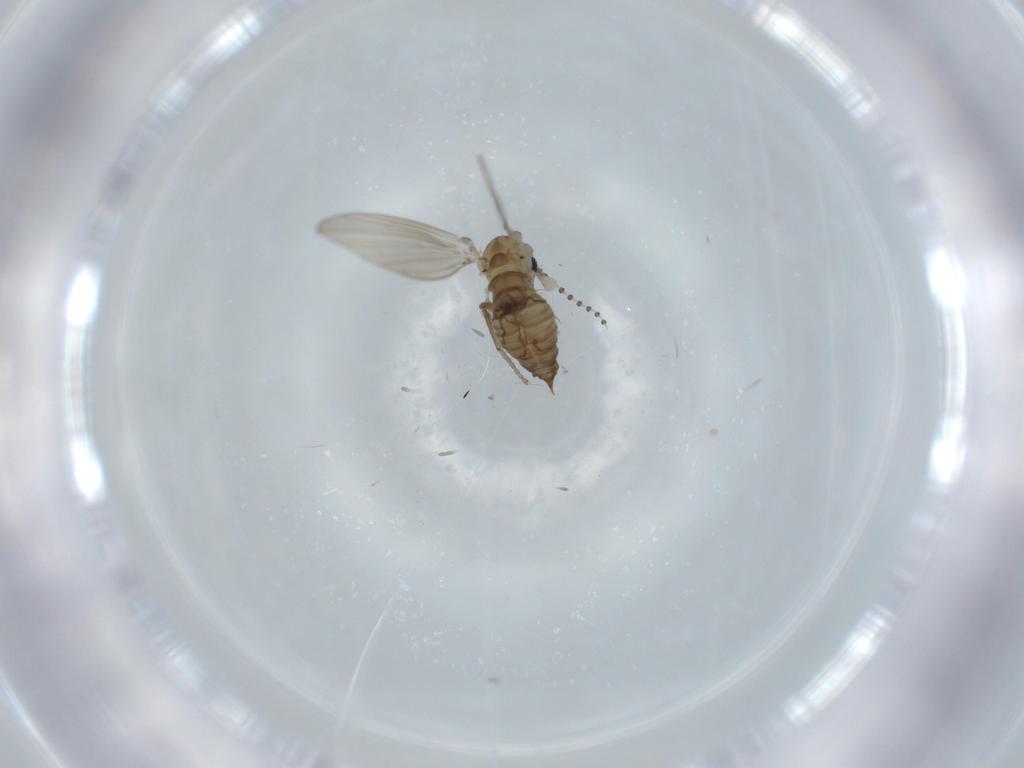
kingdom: Animalia
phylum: Arthropoda
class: Insecta
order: Diptera
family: Psychodidae
